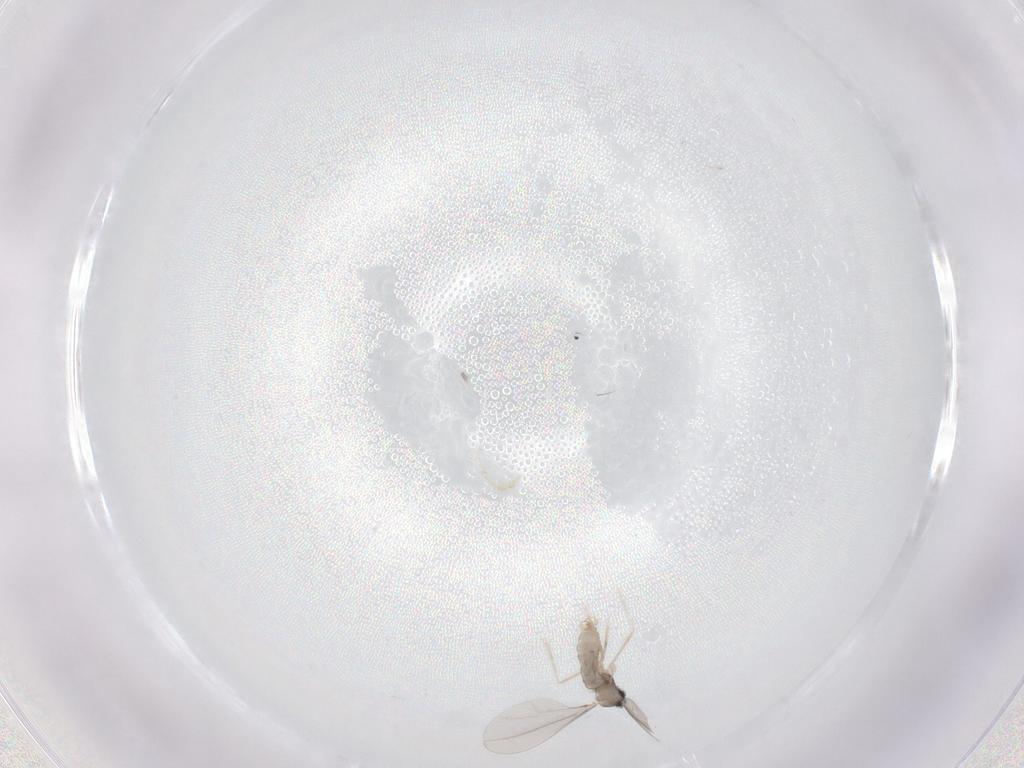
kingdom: Animalia
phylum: Arthropoda
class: Insecta
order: Diptera
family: Cecidomyiidae
